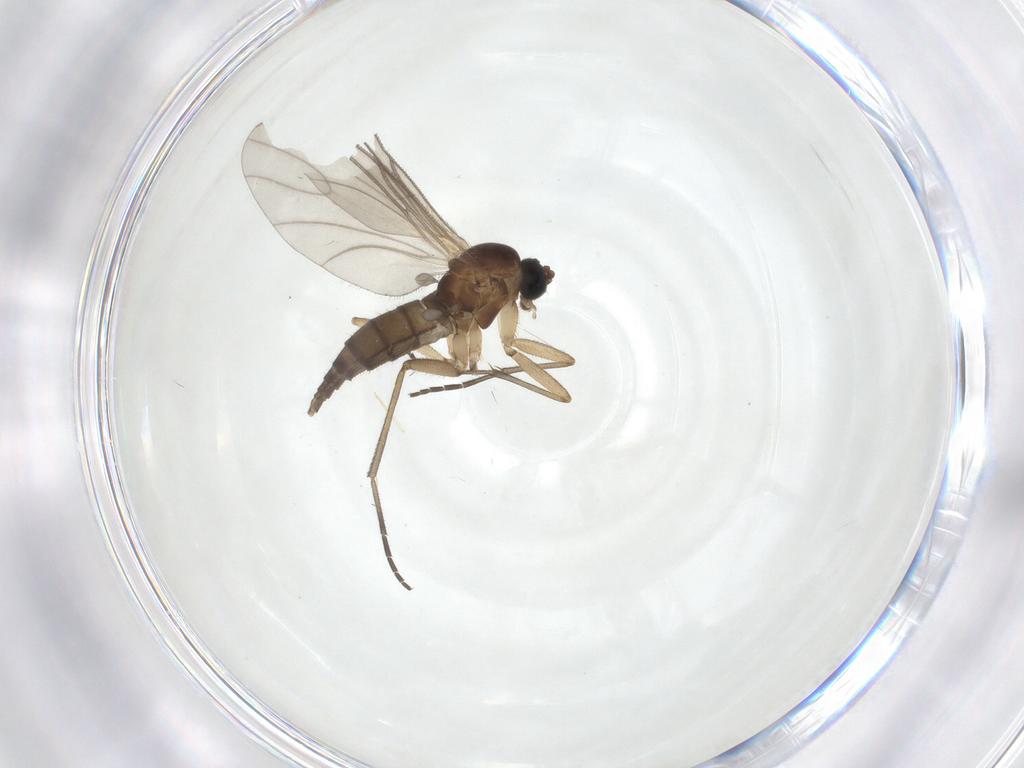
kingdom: Animalia
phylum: Arthropoda
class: Insecta
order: Diptera
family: Sciaridae
